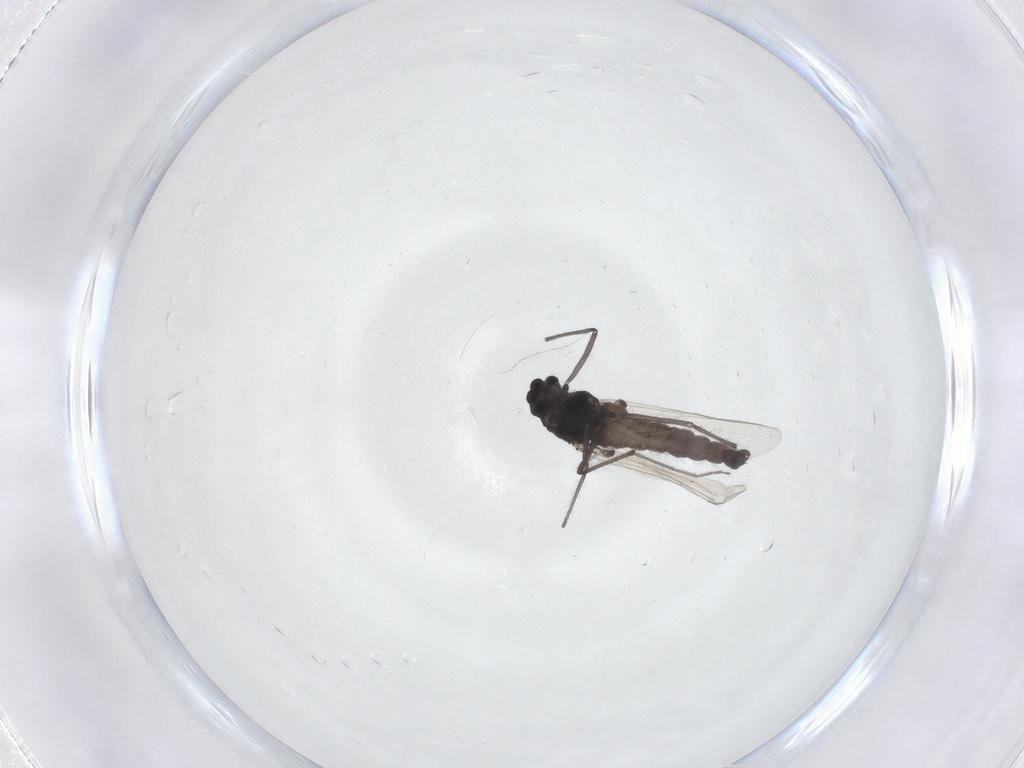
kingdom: Animalia
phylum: Arthropoda
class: Insecta
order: Diptera
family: Chironomidae
